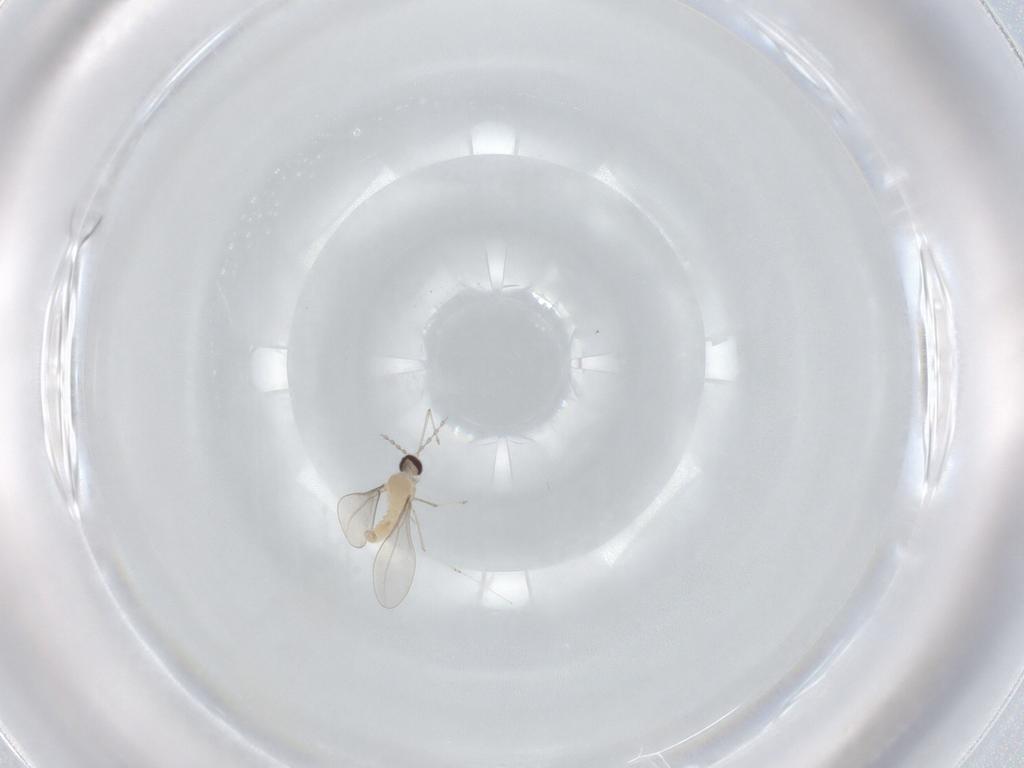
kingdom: Animalia
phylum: Arthropoda
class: Insecta
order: Diptera
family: Cecidomyiidae
